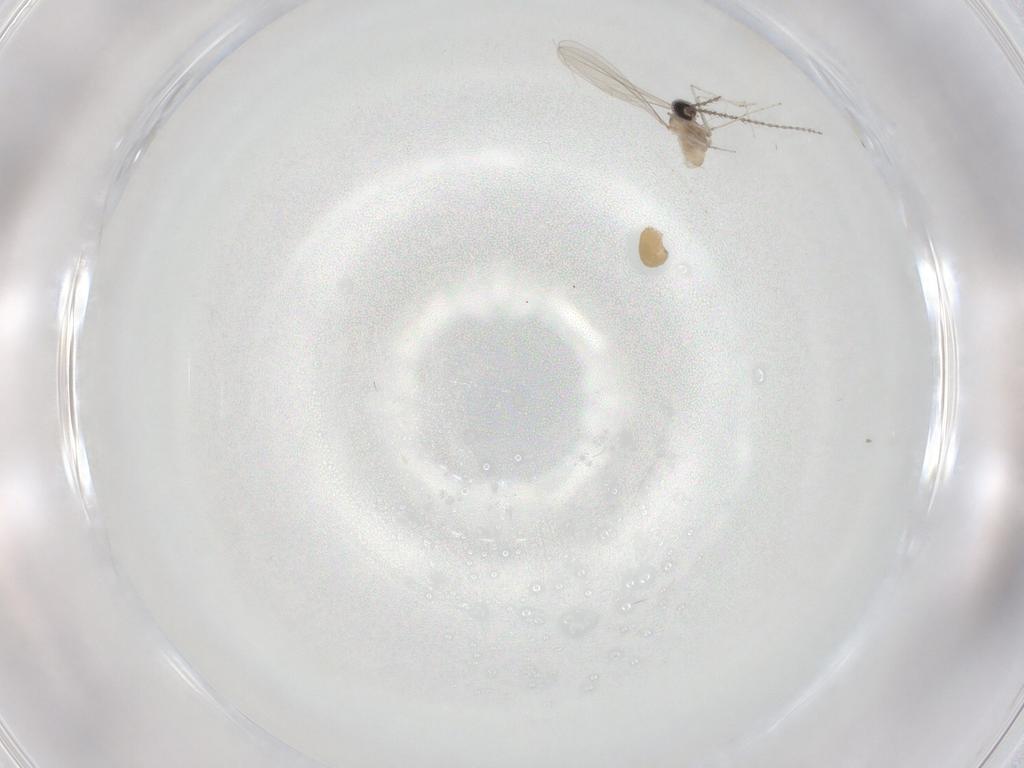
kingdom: Animalia
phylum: Arthropoda
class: Insecta
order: Diptera
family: Cecidomyiidae
